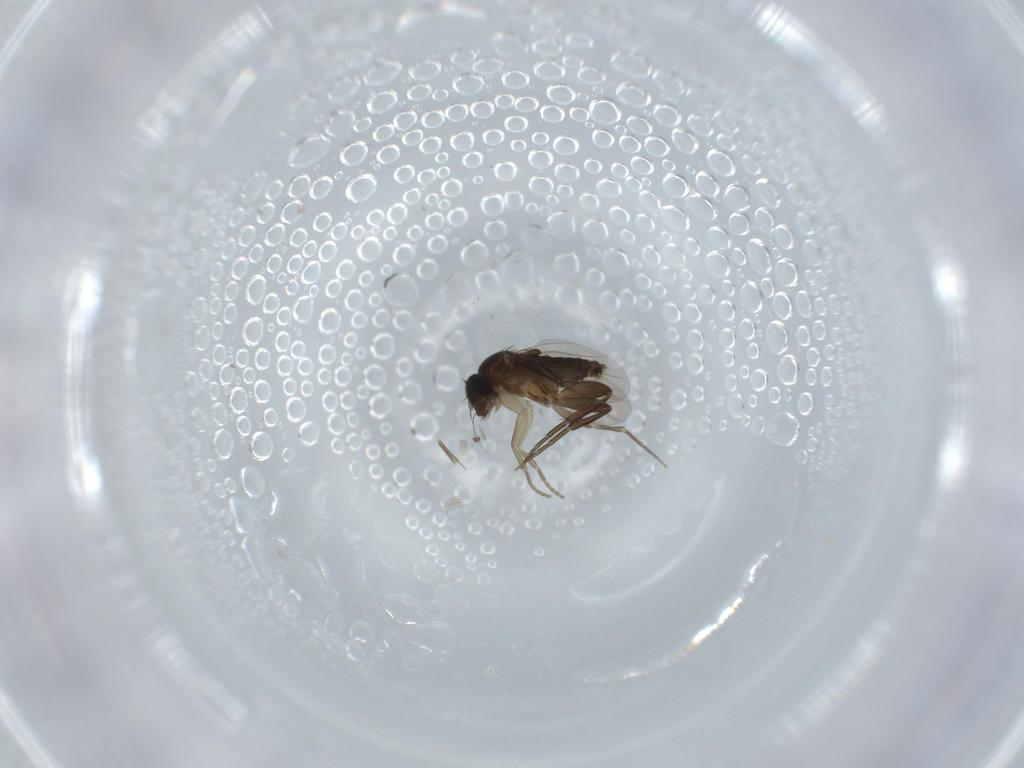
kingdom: Animalia
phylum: Arthropoda
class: Insecta
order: Diptera
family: Phoridae
